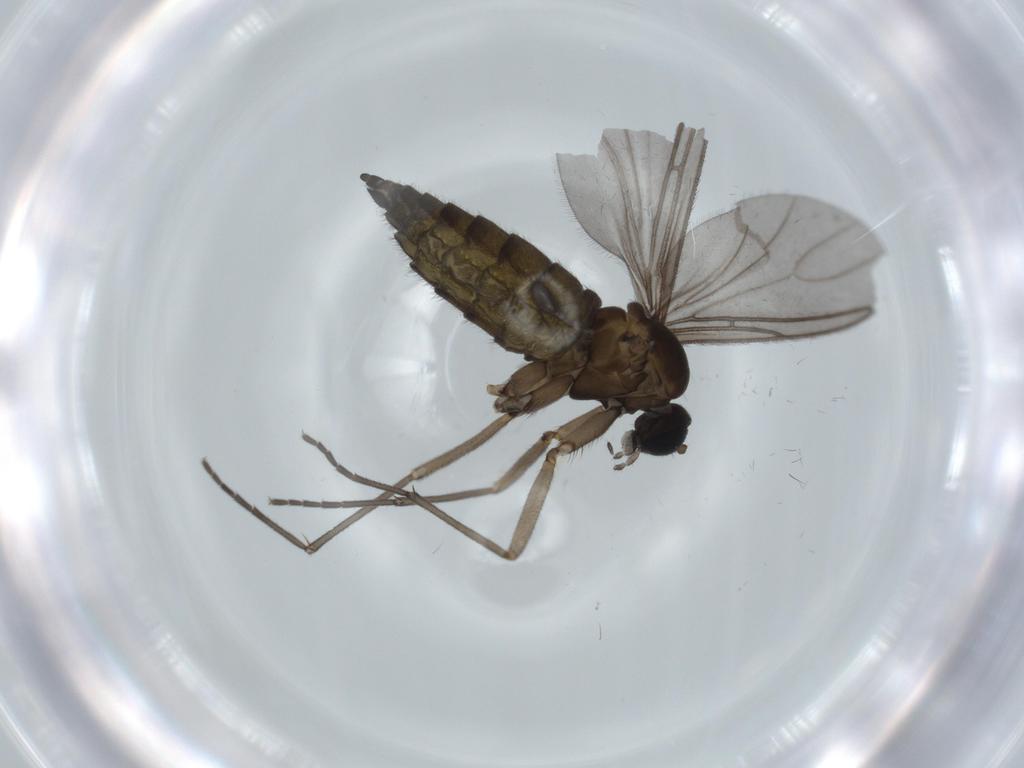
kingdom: Animalia
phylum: Arthropoda
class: Insecta
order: Diptera
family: Sciaridae
